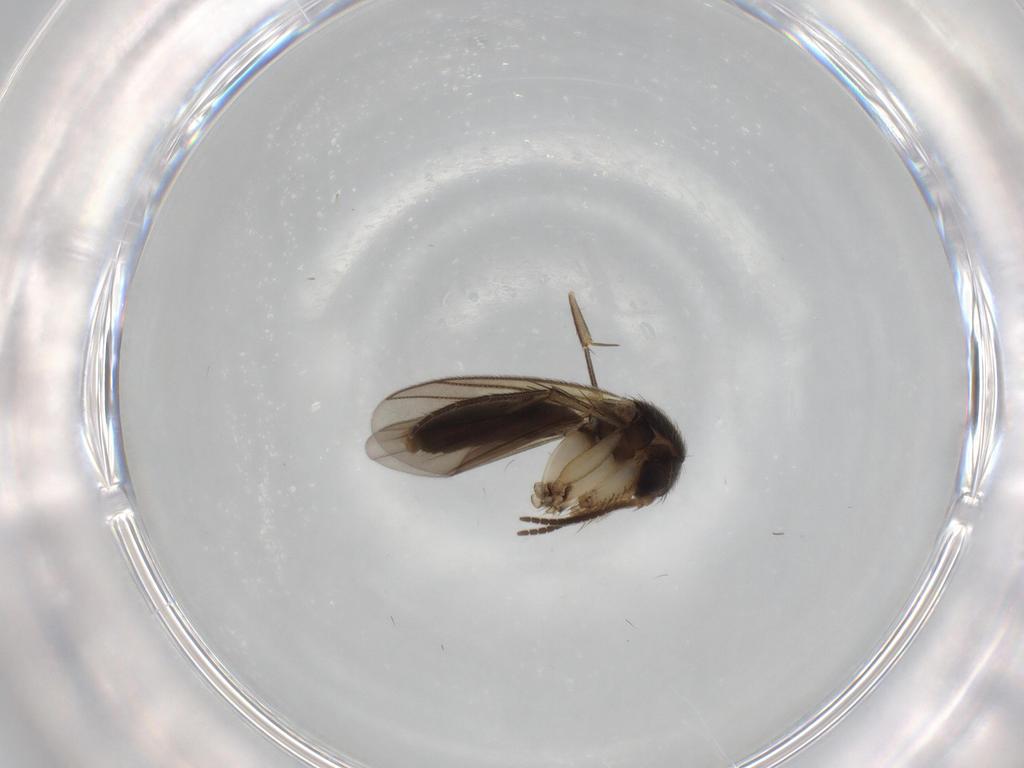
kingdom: Animalia
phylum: Arthropoda
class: Insecta
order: Diptera
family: Mycetophilidae
